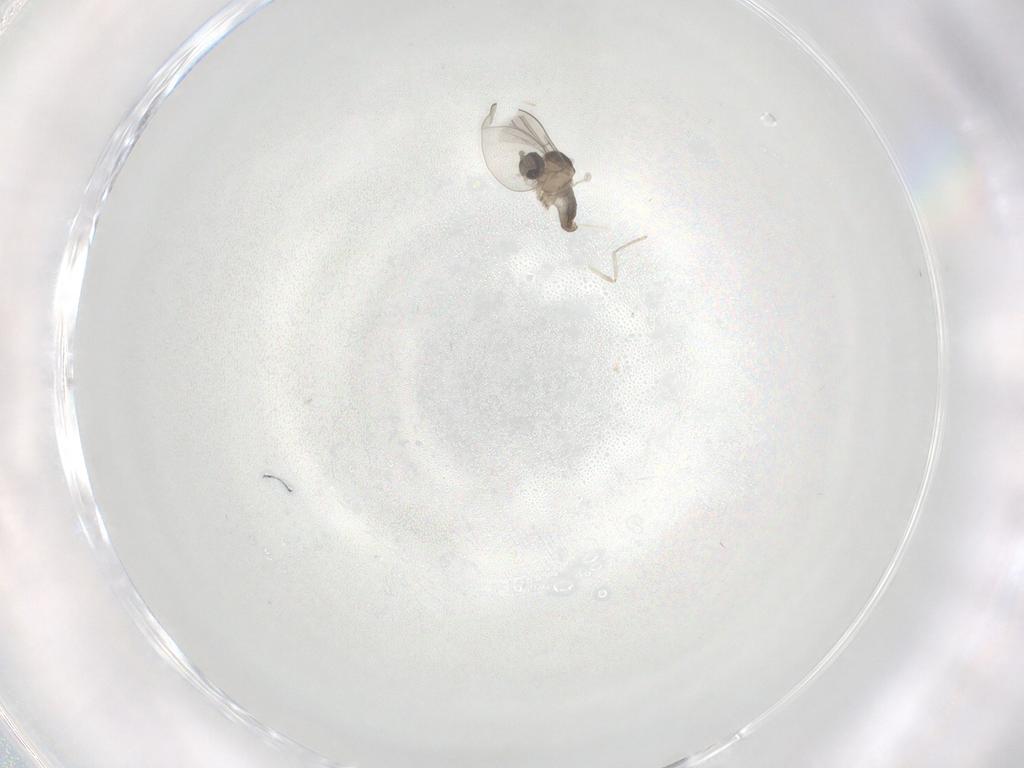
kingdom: Animalia
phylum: Arthropoda
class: Insecta
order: Diptera
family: Cecidomyiidae
